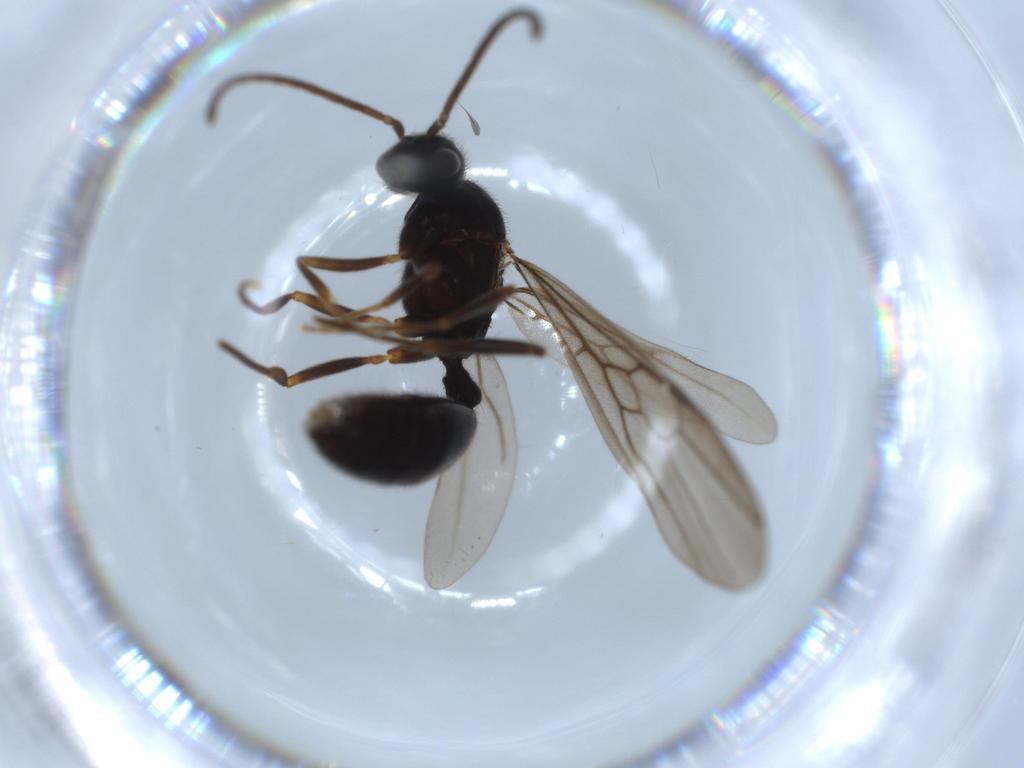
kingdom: Animalia
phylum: Arthropoda
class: Insecta
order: Hymenoptera
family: Formicidae
